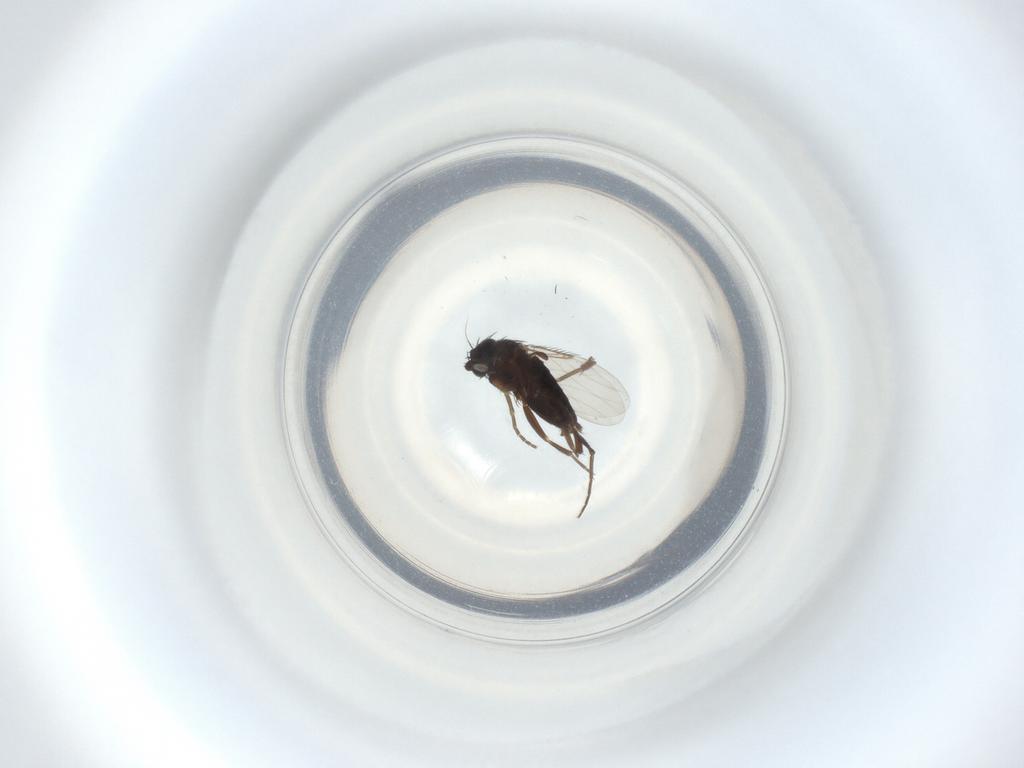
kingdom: Animalia
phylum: Arthropoda
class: Insecta
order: Diptera
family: Phoridae
